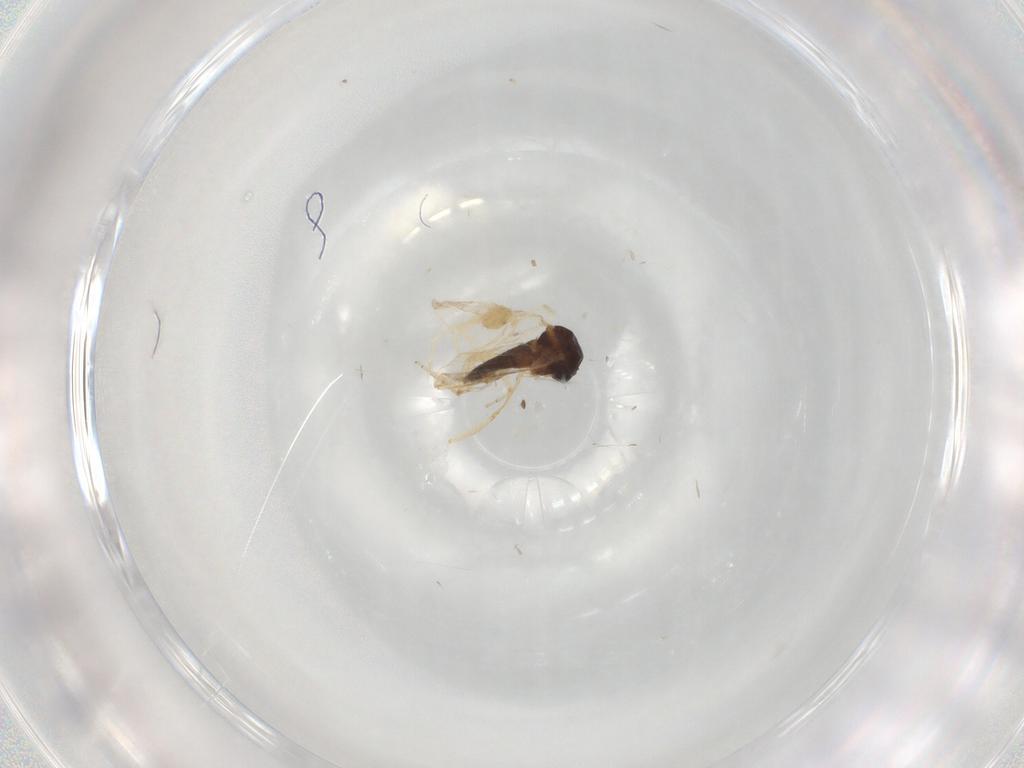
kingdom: Animalia
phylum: Arthropoda
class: Insecta
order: Diptera
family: Ceratopogonidae
